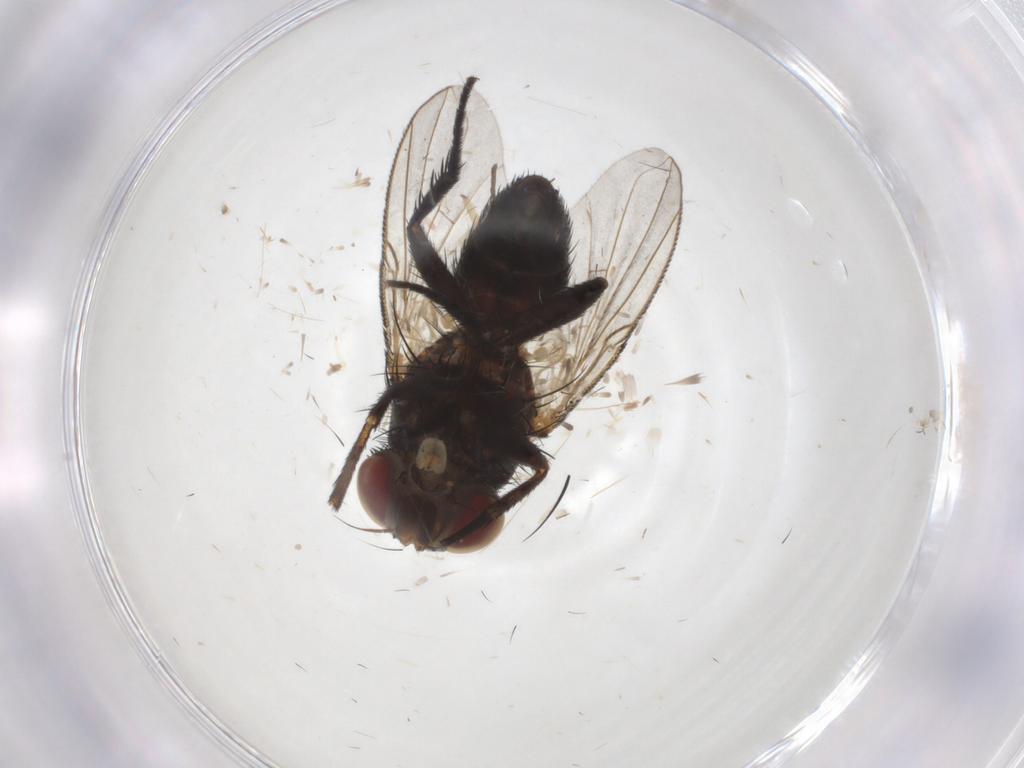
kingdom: Animalia
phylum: Arthropoda
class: Insecta
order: Diptera
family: Tachinidae
